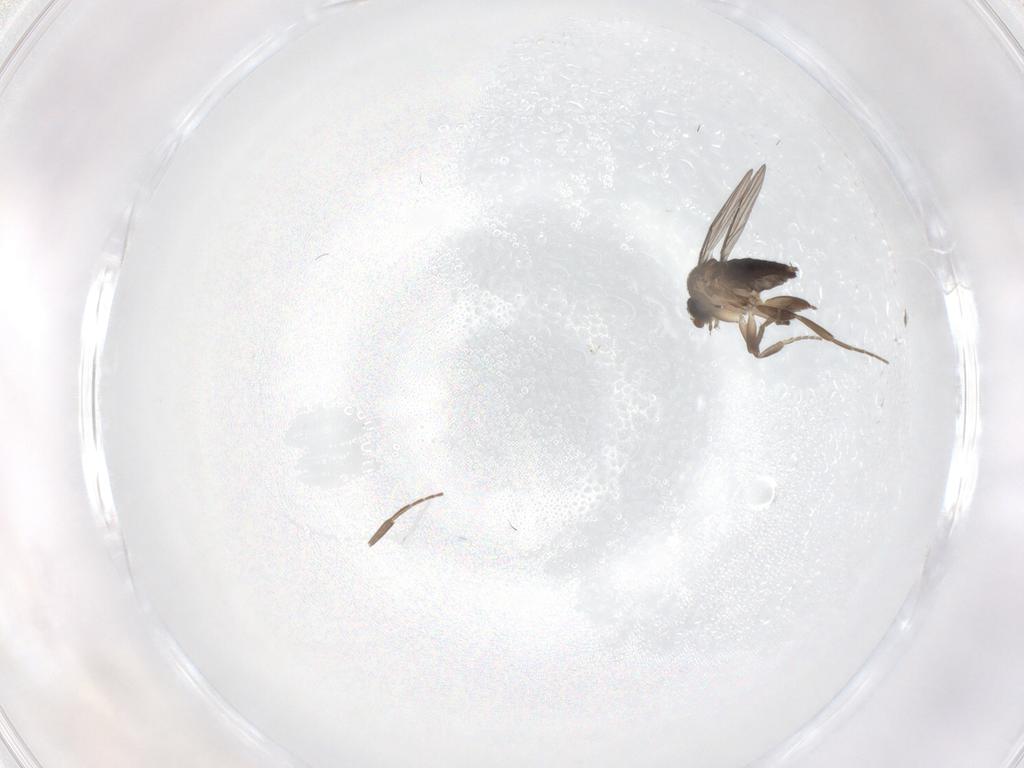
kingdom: Animalia
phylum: Arthropoda
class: Insecta
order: Diptera
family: Phoridae
